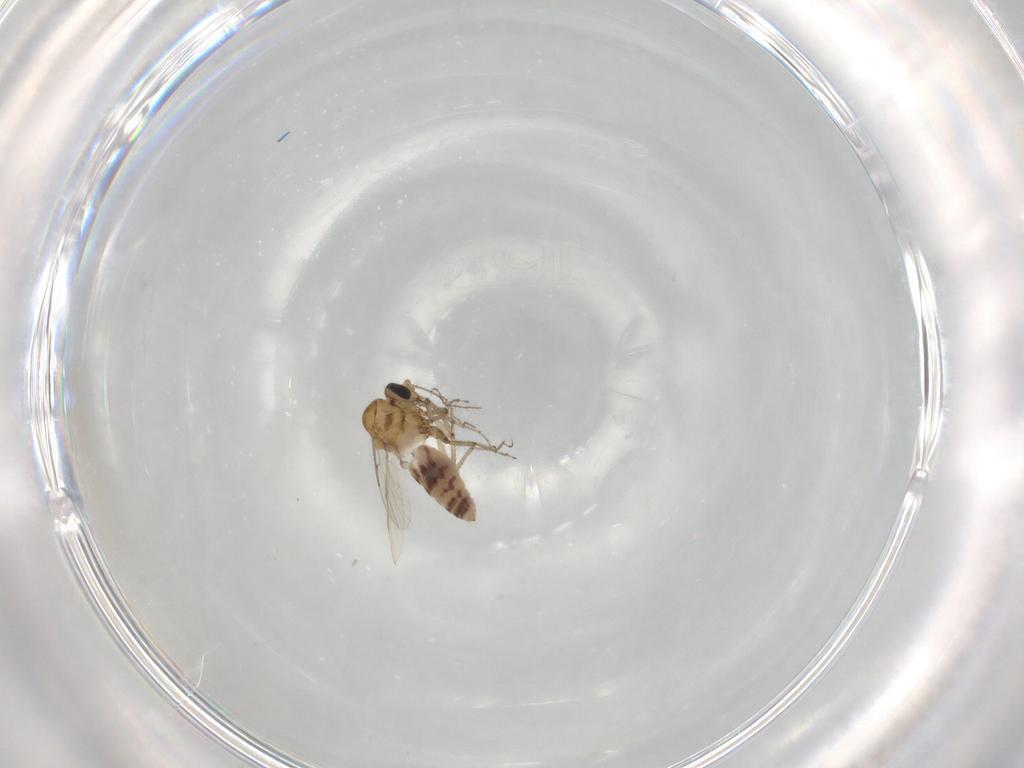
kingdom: Animalia
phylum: Arthropoda
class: Insecta
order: Diptera
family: Ceratopogonidae
